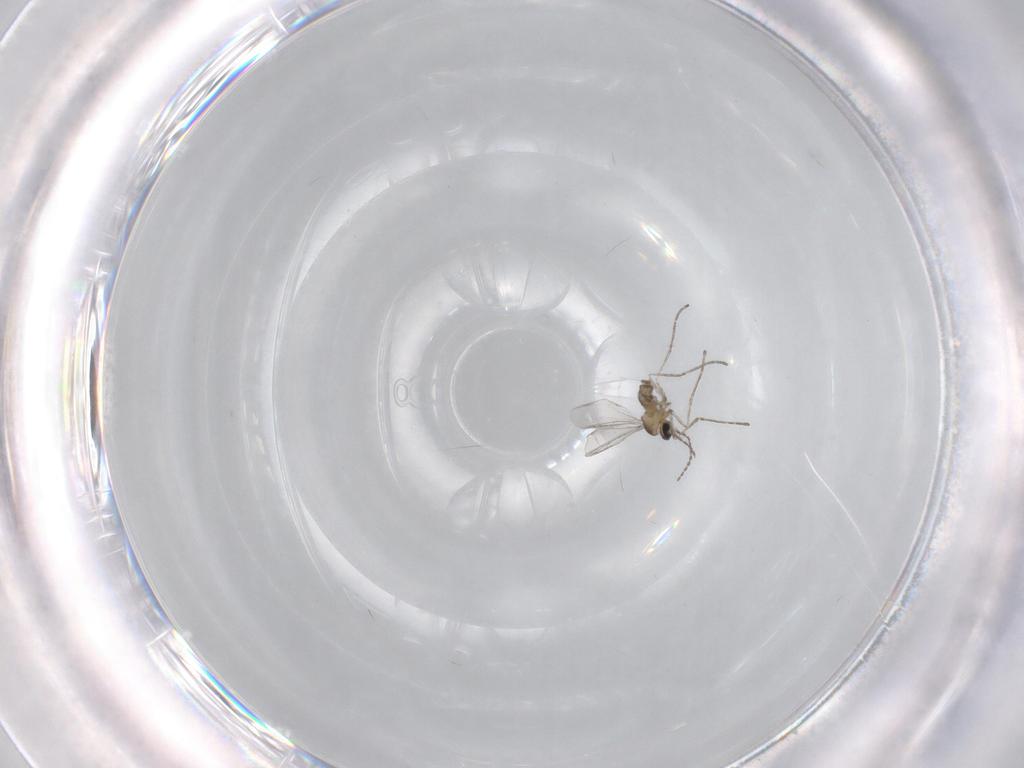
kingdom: Animalia
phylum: Arthropoda
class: Insecta
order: Diptera
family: Cecidomyiidae
